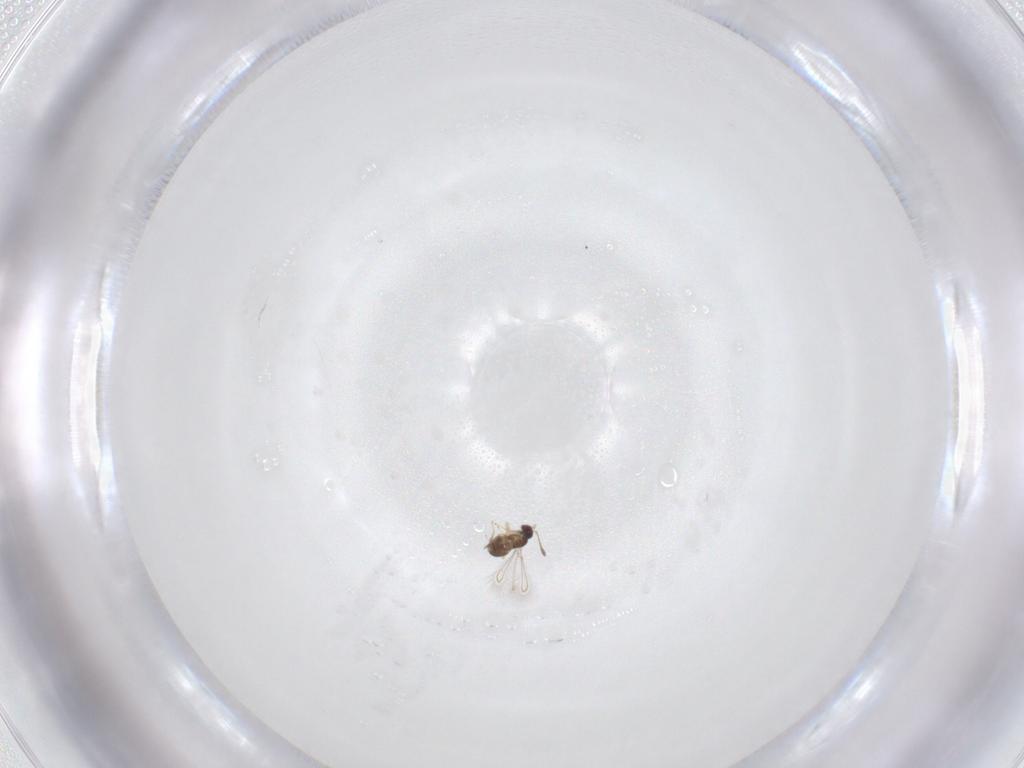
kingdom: Animalia
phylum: Arthropoda
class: Insecta
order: Hymenoptera
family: Mymaridae
